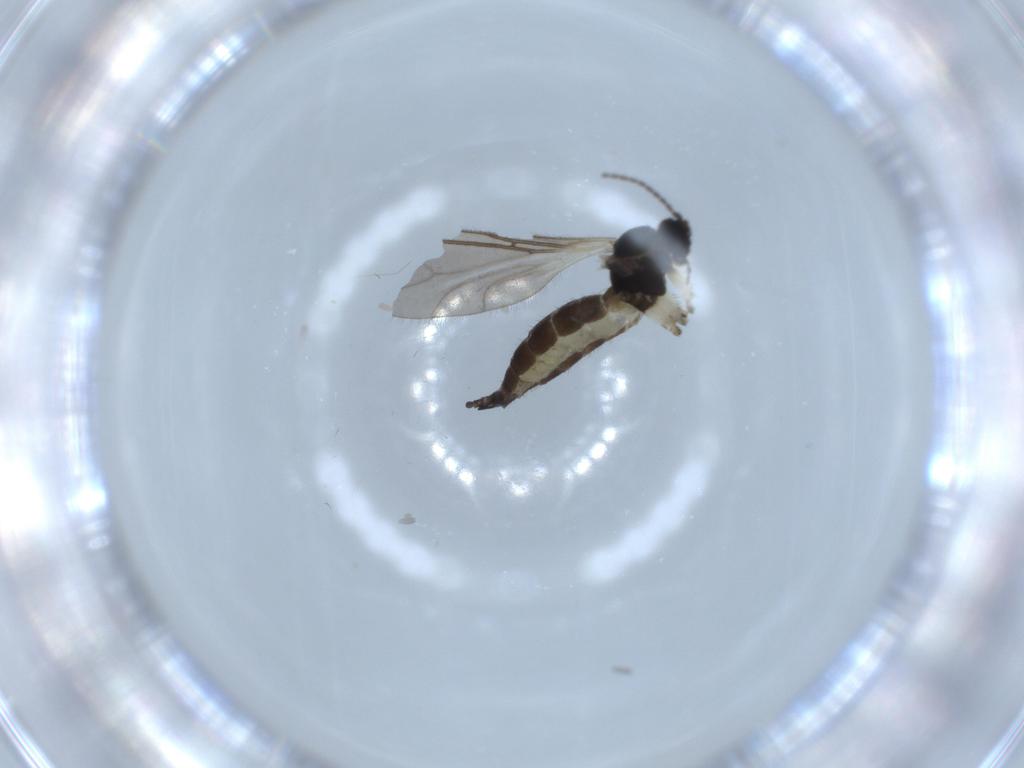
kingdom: Animalia
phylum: Arthropoda
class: Insecta
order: Diptera
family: Sciaridae
